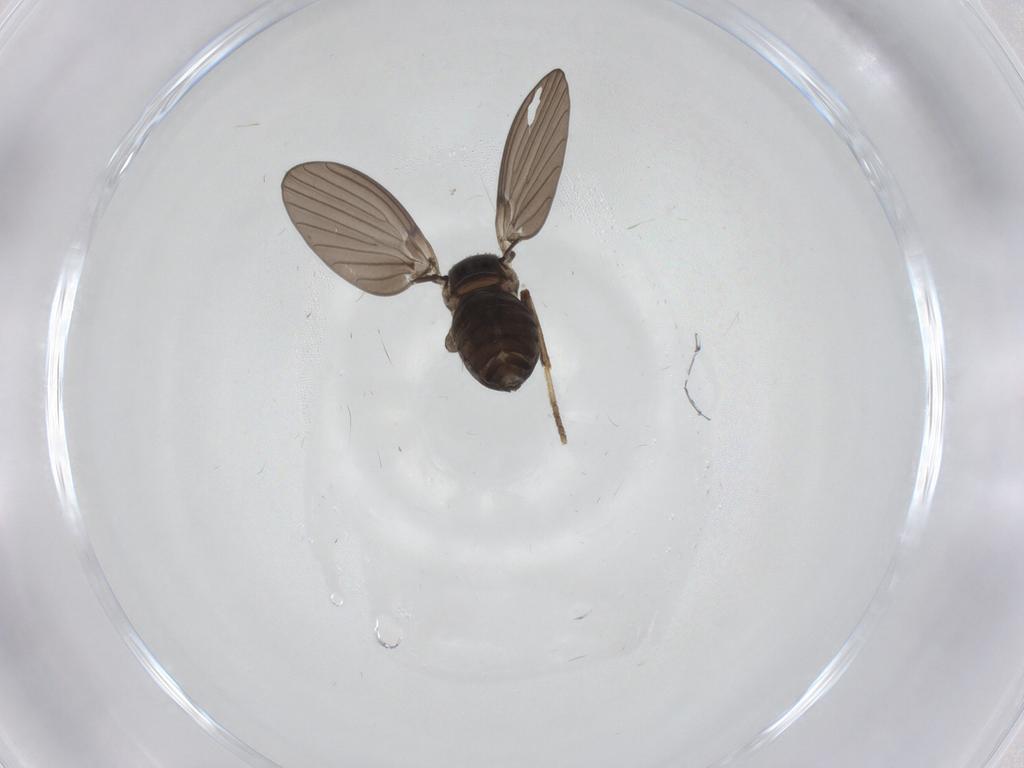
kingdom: Animalia
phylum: Arthropoda
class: Insecta
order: Diptera
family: Psychodidae
